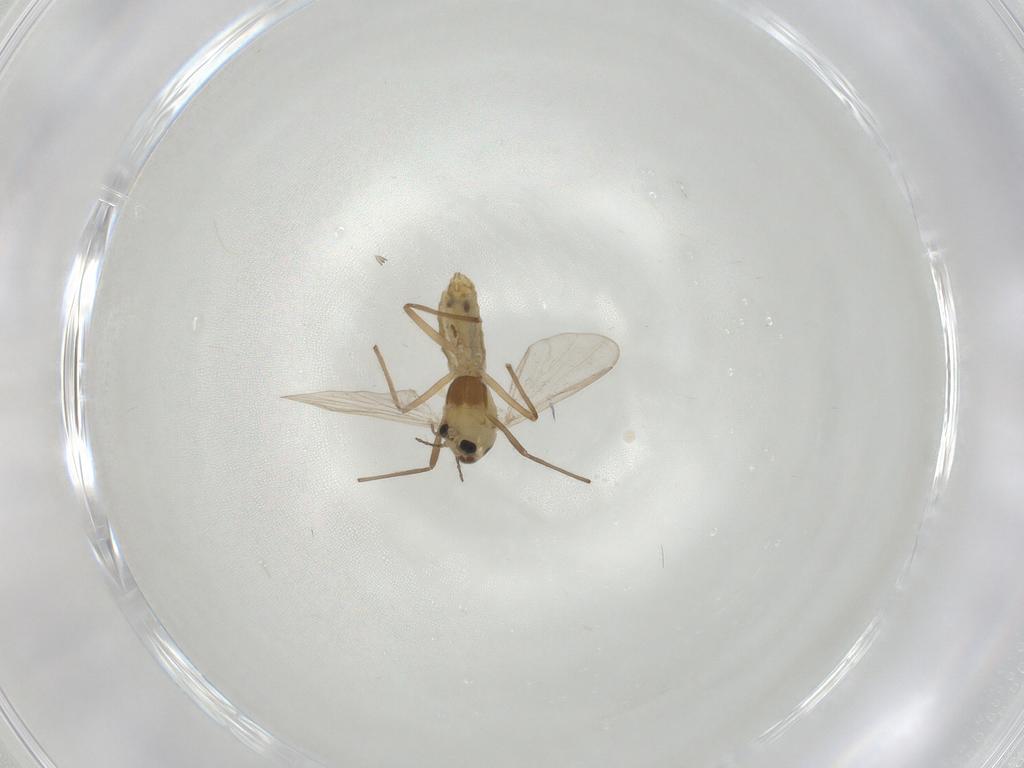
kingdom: Animalia
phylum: Arthropoda
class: Insecta
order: Diptera
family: Chironomidae
